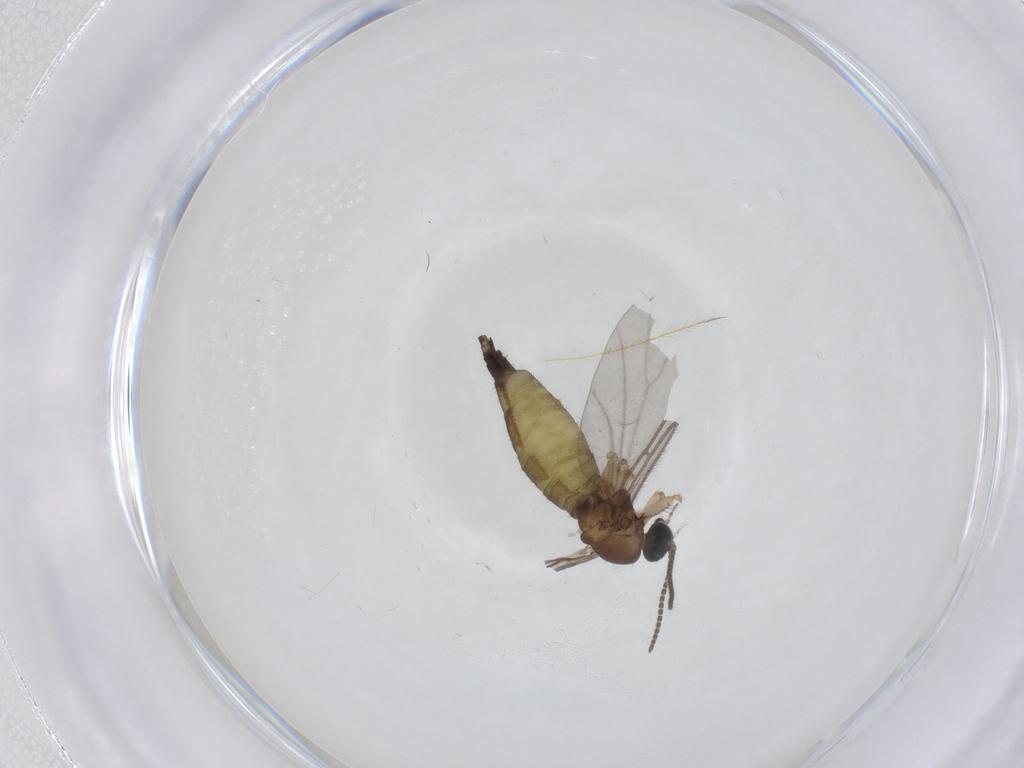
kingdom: Animalia
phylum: Arthropoda
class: Insecta
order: Diptera
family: Sciaridae
